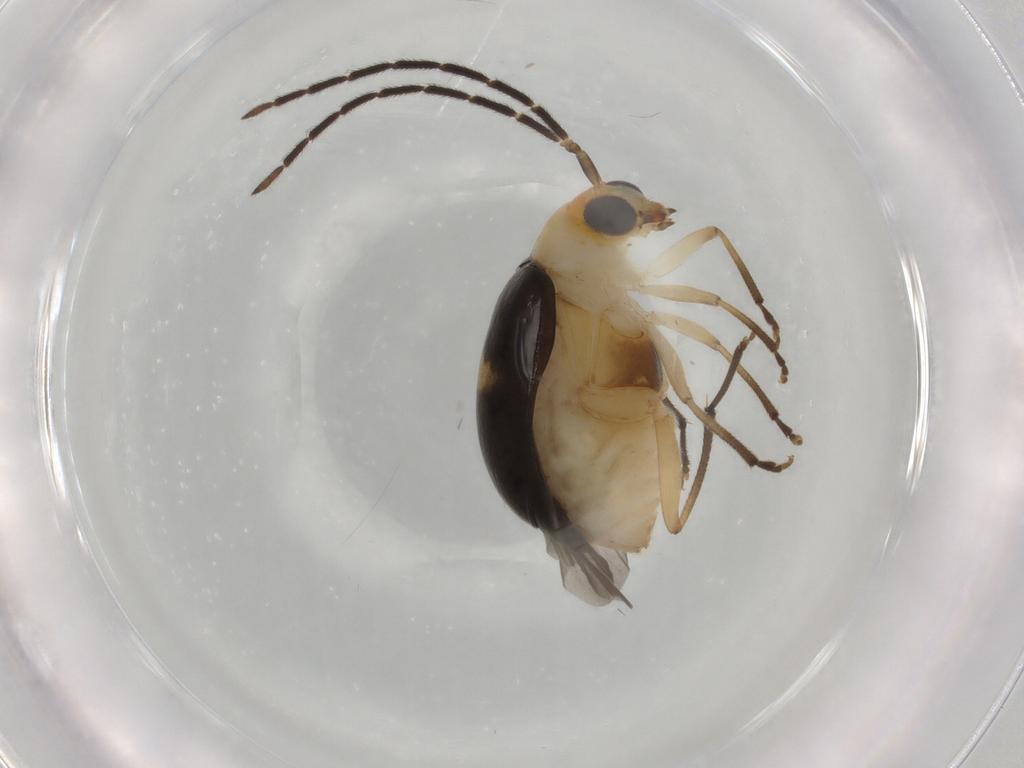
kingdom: Animalia
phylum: Arthropoda
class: Insecta
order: Coleoptera
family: Chrysomelidae
